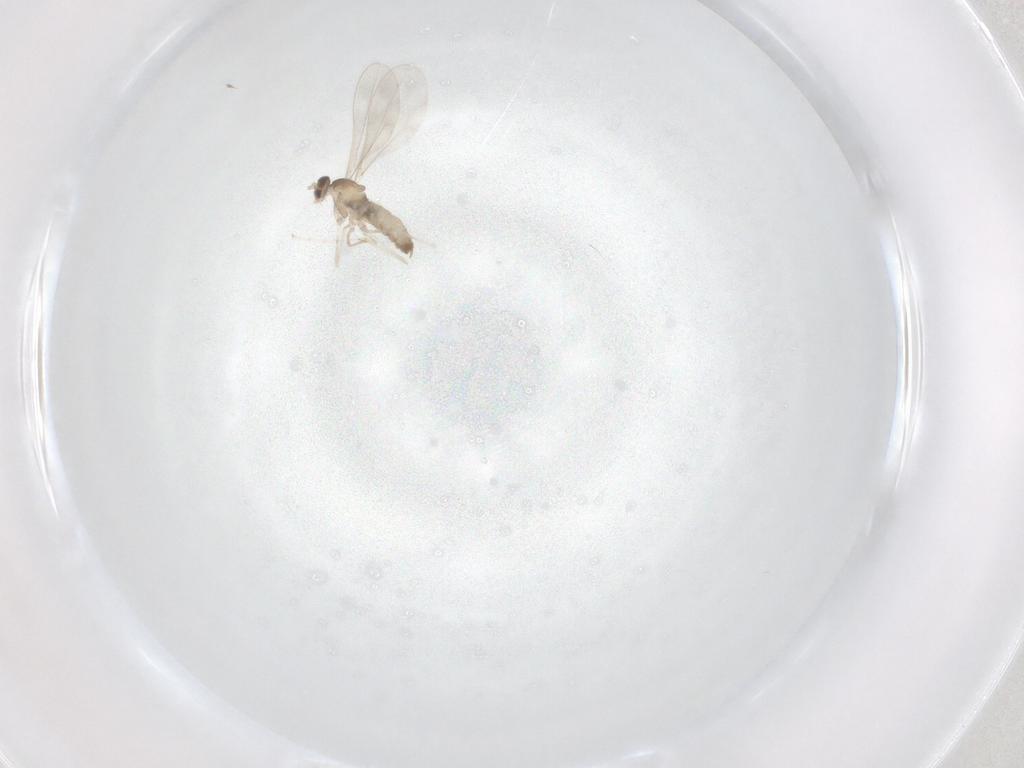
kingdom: Animalia
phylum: Arthropoda
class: Insecta
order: Diptera
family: Cecidomyiidae
